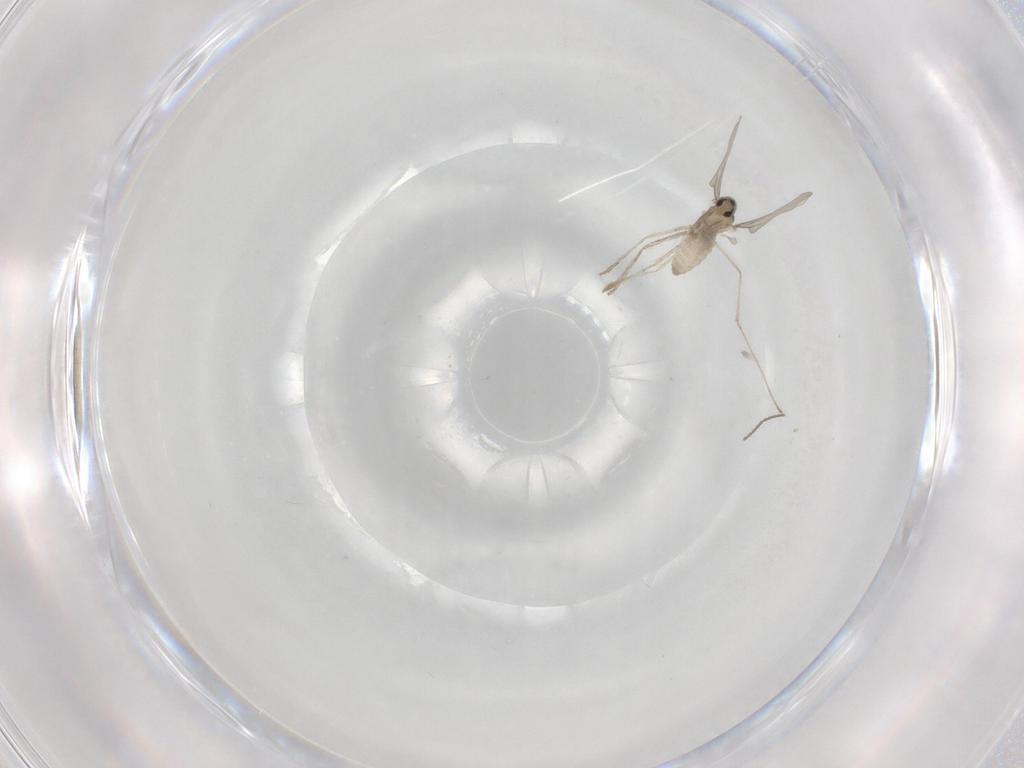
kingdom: Animalia
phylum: Arthropoda
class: Insecta
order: Diptera
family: Cecidomyiidae
